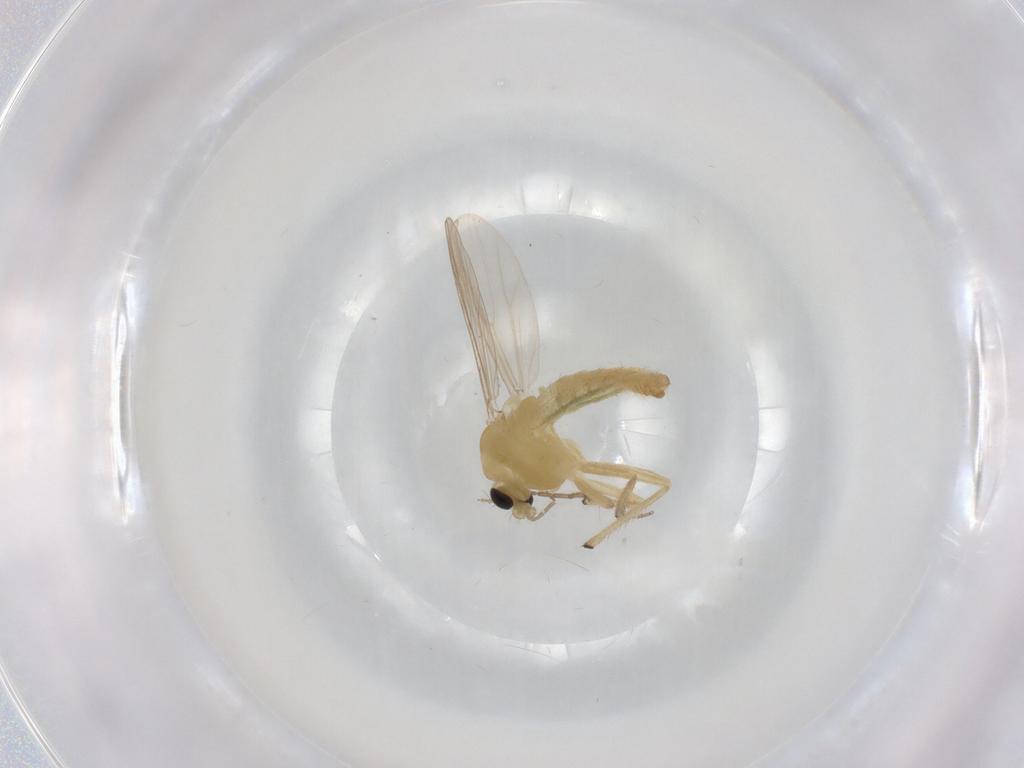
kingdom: Animalia
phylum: Arthropoda
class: Insecta
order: Diptera
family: Chironomidae
